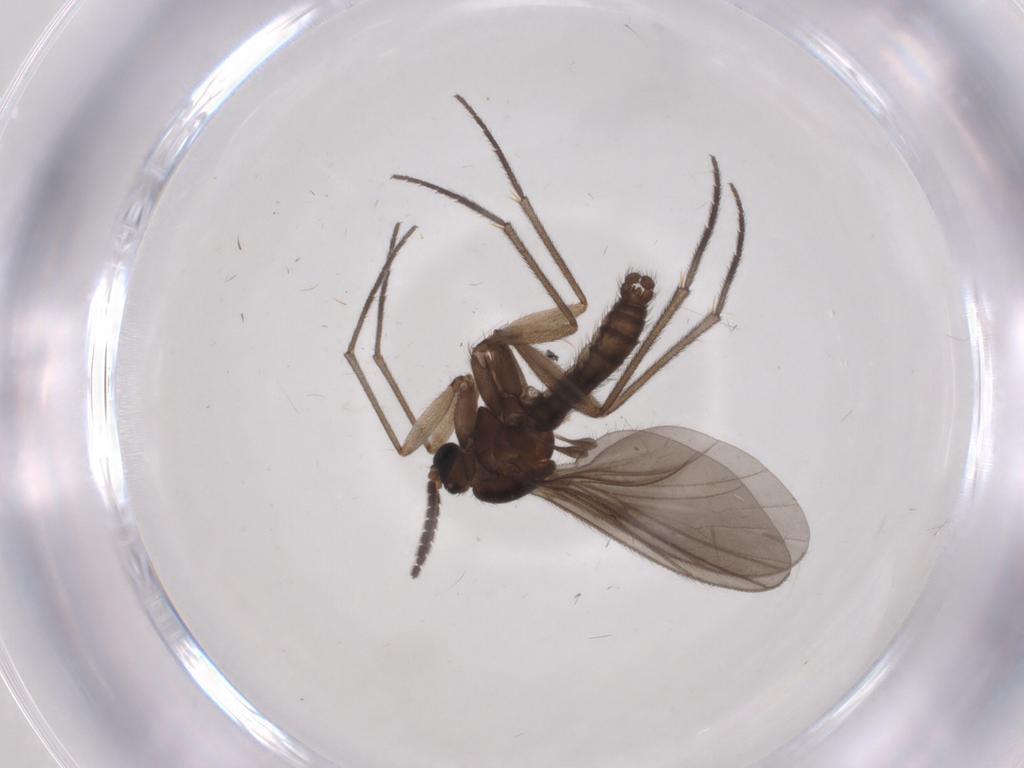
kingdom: Animalia
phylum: Arthropoda
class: Insecta
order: Diptera
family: Sciaridae
